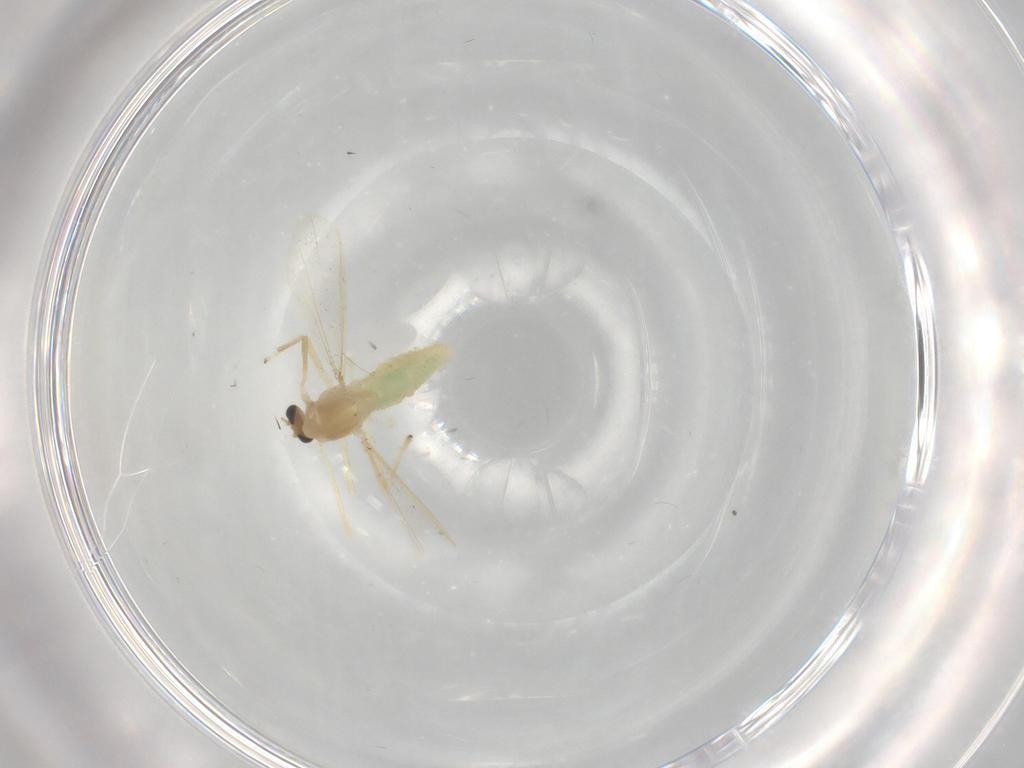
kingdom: Animalia
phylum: Arthropoda
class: Insecta
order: Diptera
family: Chironomidae
